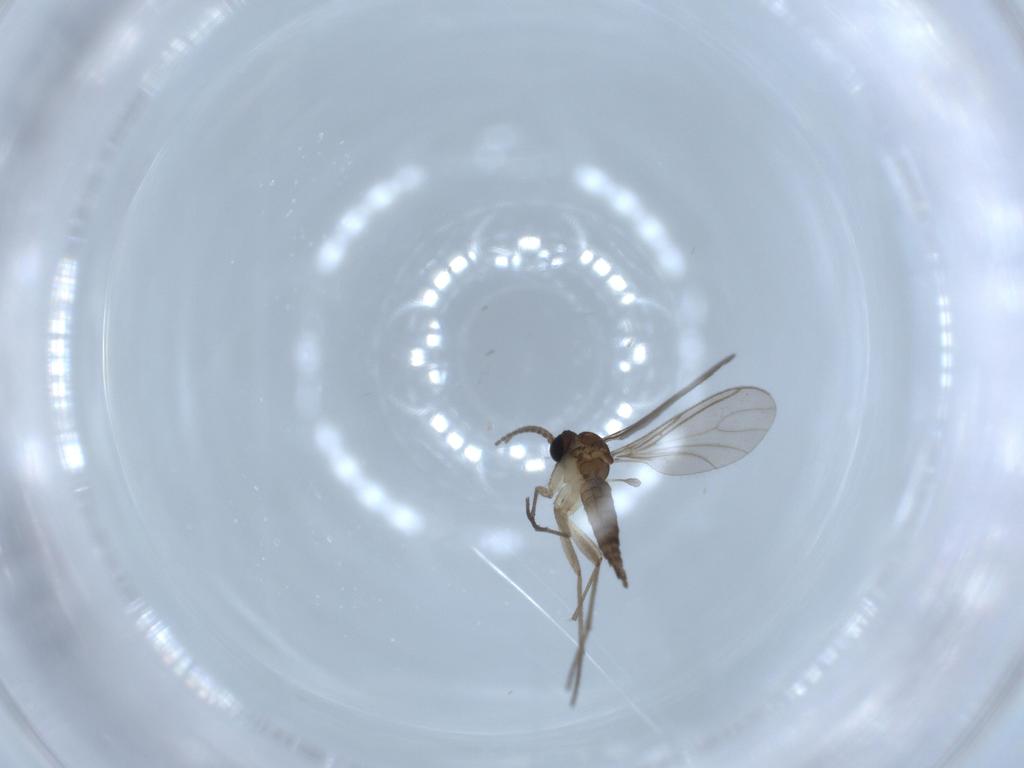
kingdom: Animalia
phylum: Arthropoda
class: Insecta
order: Diptera
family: Sciaridae
